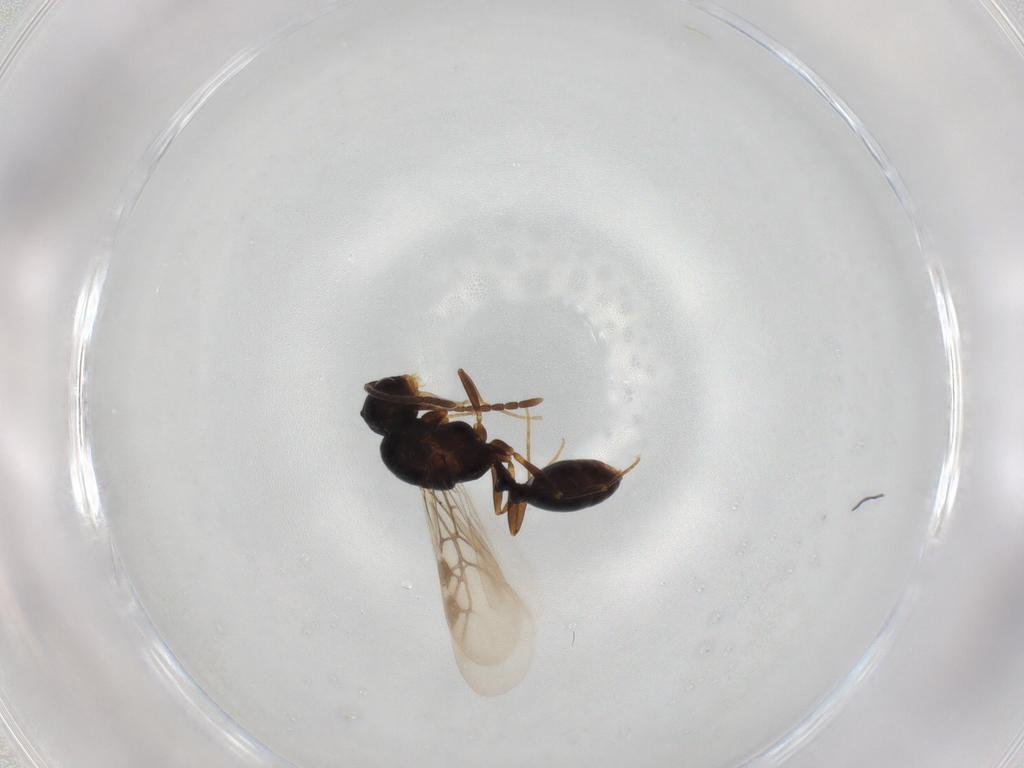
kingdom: Animalia
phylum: Arthropoda
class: Insecta
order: Hymenoptera
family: Formicidae
